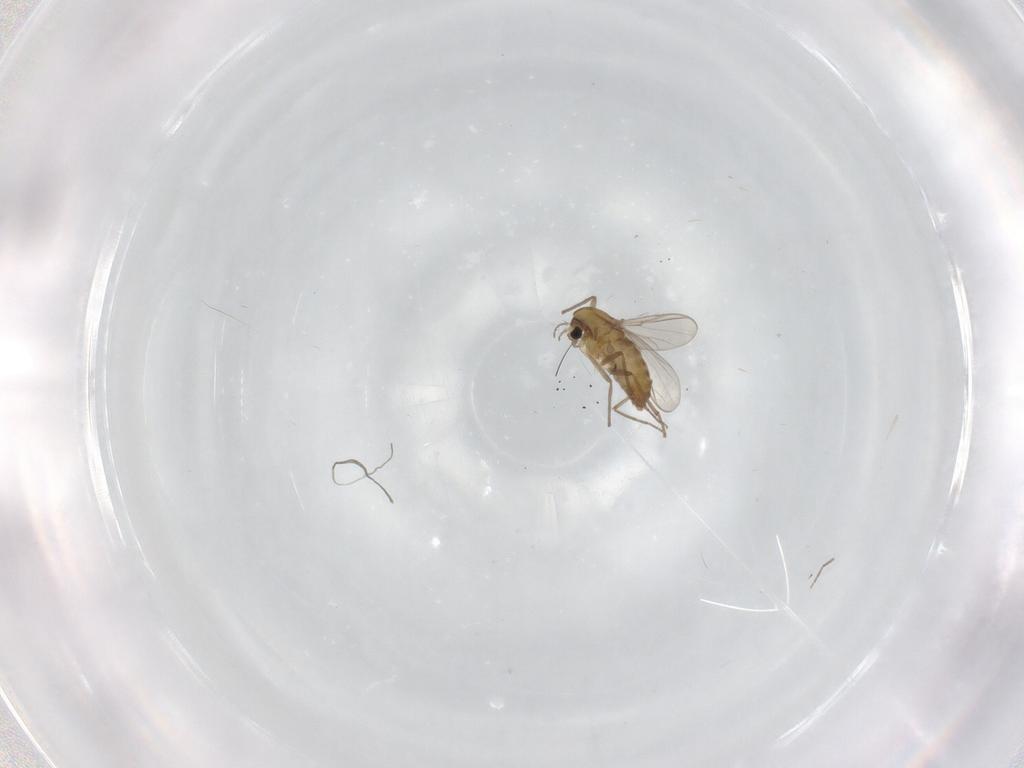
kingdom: Animalia
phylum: Arthropoda
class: Insecta
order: Diptera
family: Chironomidae
